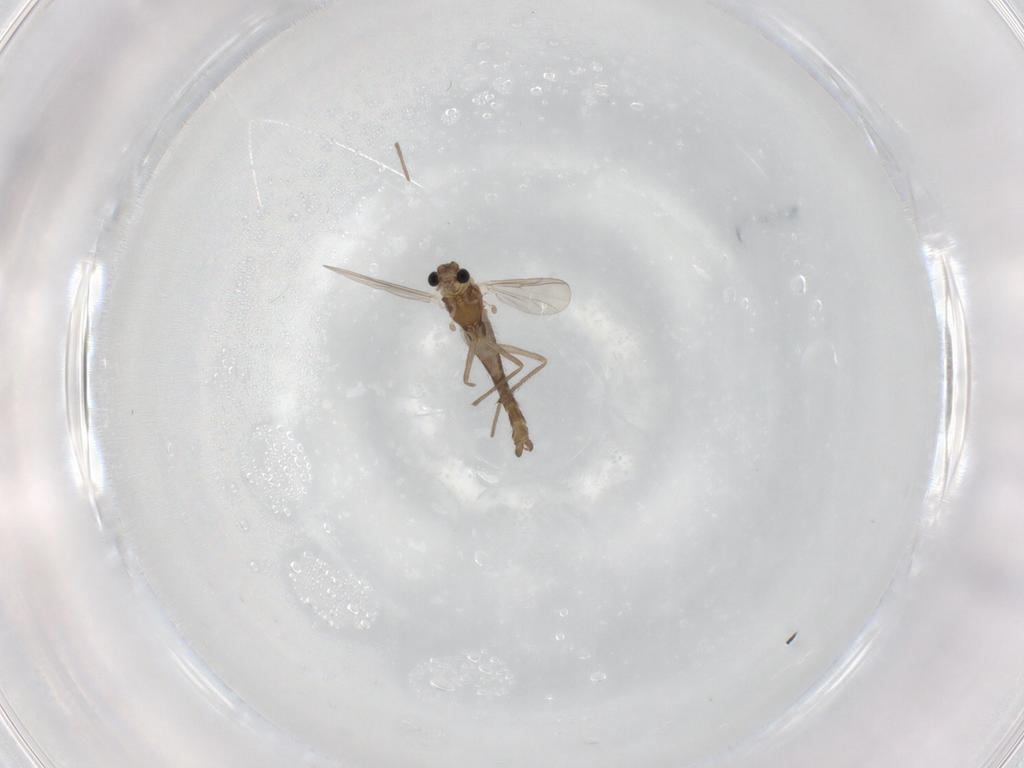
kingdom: Animalia
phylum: Arthropoda
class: Insecta
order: Diptera
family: Chironomidae
